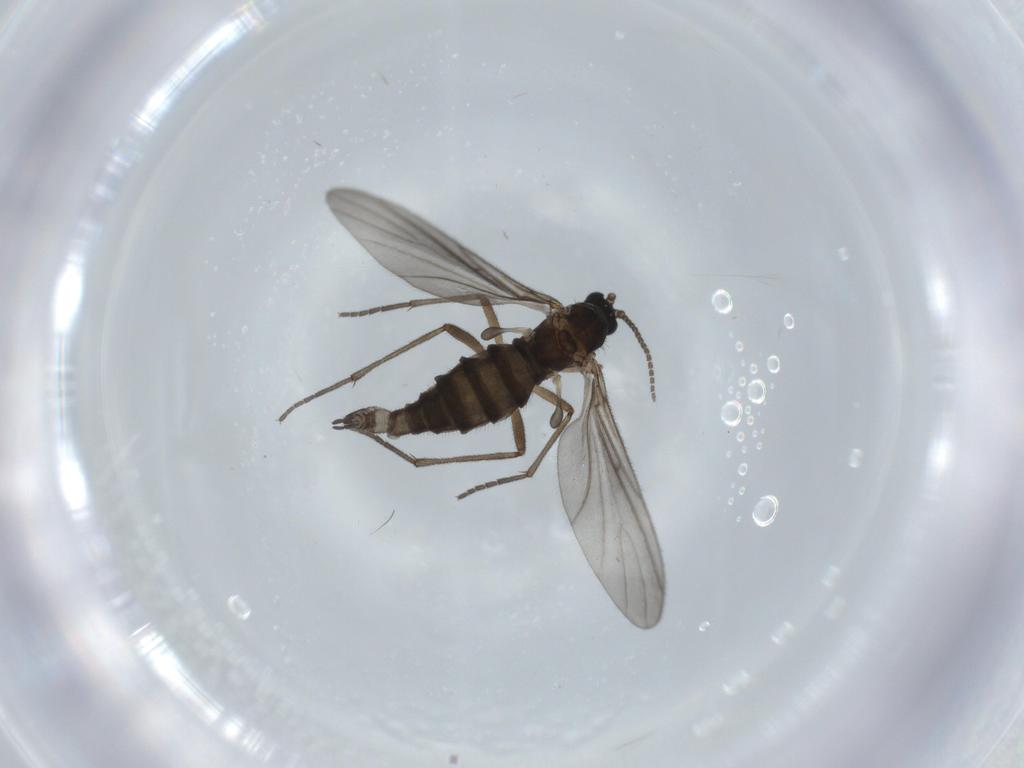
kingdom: Animalia
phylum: Arthropoda
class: Insecta
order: Diptera
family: Sciaridae
